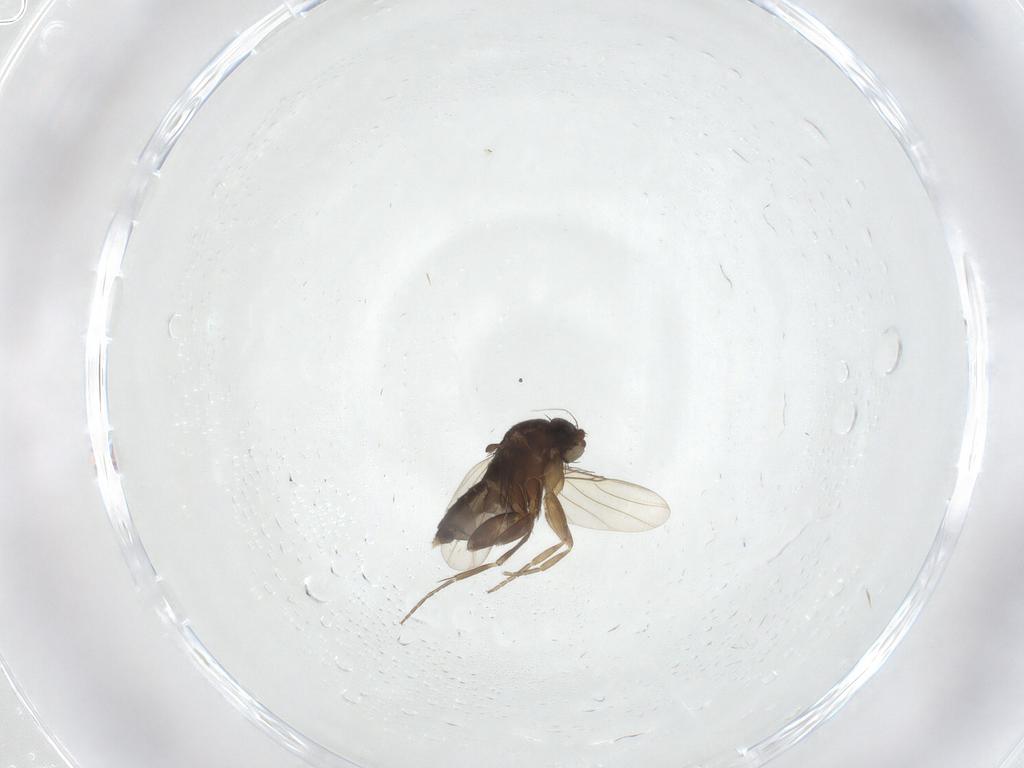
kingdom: Animalia
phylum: Arthropoda
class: Insecta
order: Diptera
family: Phoridae
